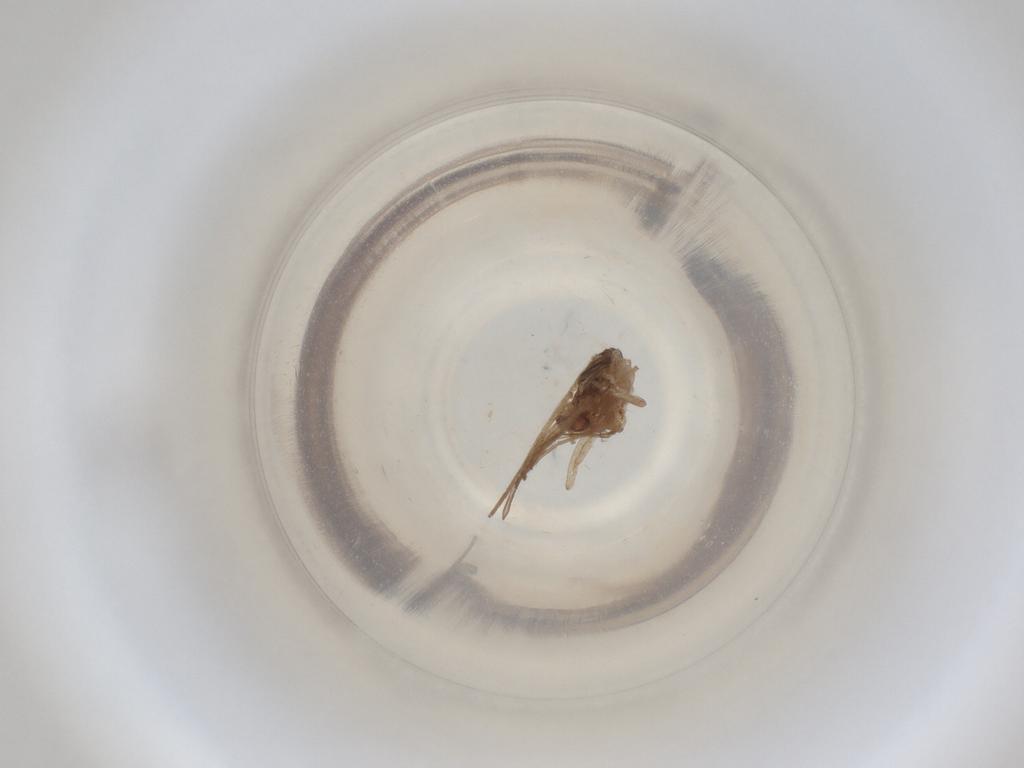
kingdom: Animalia
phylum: Arthropoda
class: Insecta
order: Diptera
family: Cecidomyiidae
